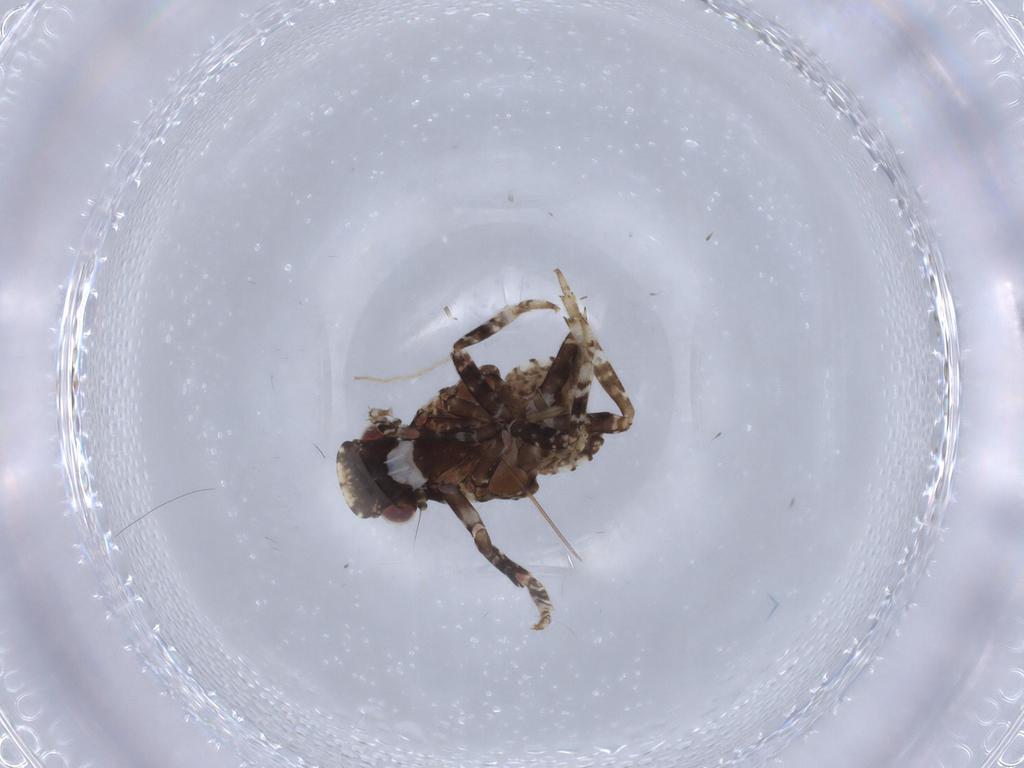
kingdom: Animalia
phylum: Arthropoda
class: Insecta
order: Hemiptera
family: Fulgoridae
